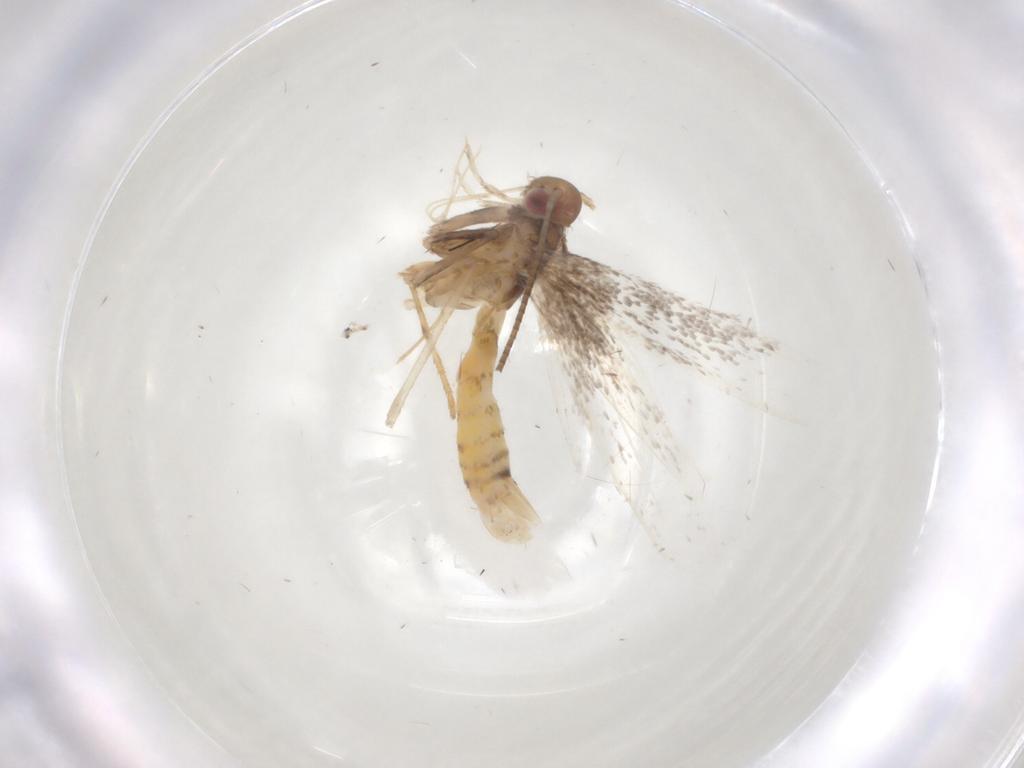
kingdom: Animalia
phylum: Arthropoda
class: Insecta
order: Lepidoptera
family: Gracillariidae
